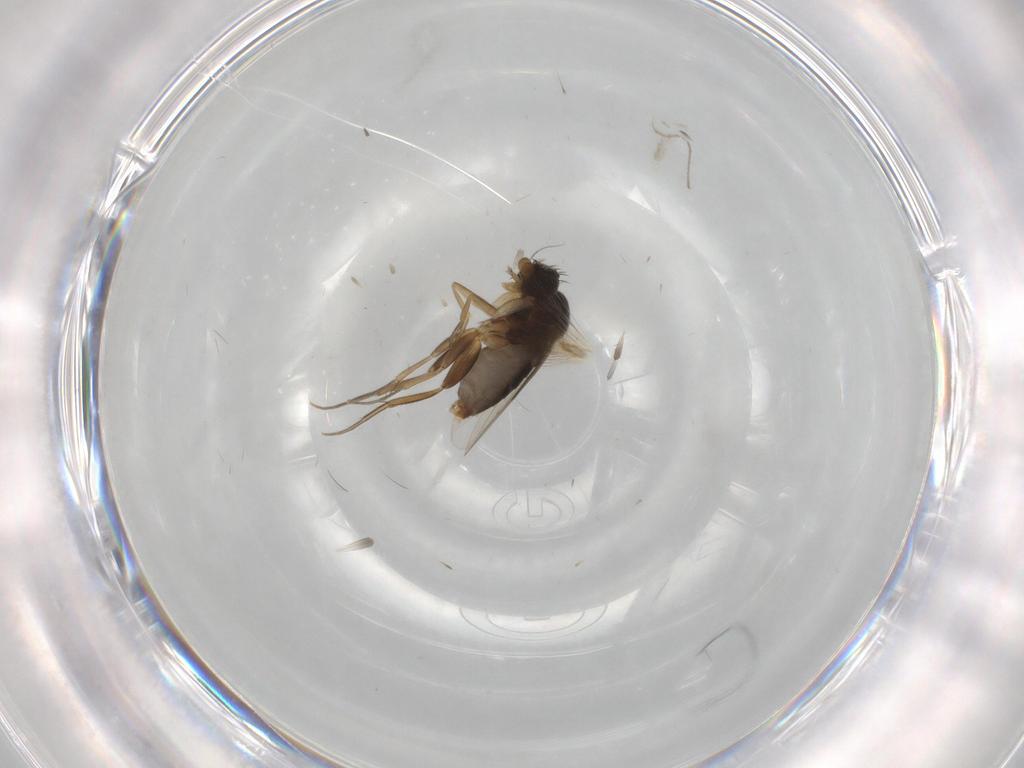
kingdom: Animalia
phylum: Arthropoda
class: Insecta
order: Diptera
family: Phoridae
